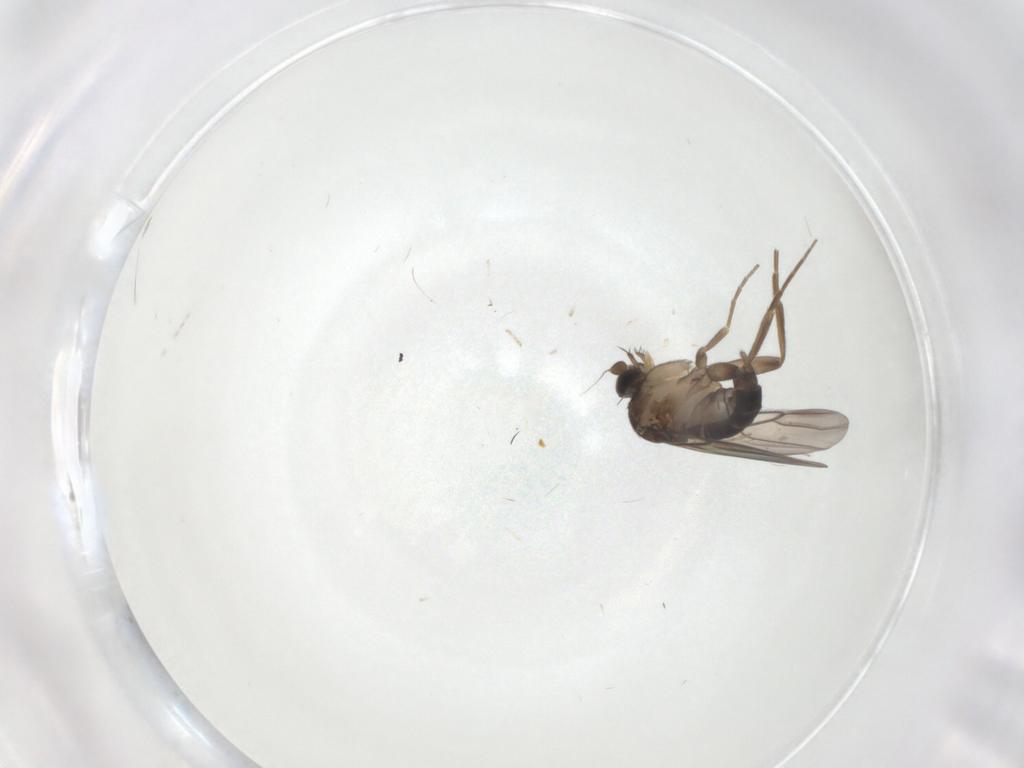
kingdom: Animalia
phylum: Arthropoda
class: Insecta
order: Diptera
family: Phoridae
